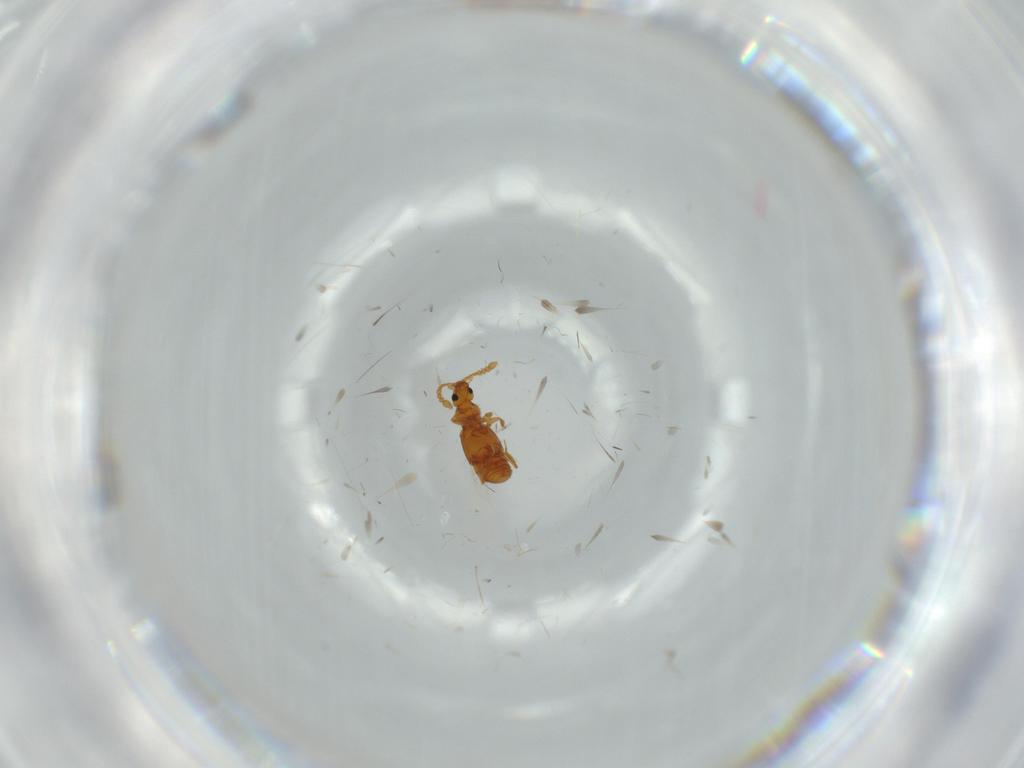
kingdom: Animalia
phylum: Arthropoda
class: Insecta
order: Coleoptera
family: Staphylinidae
